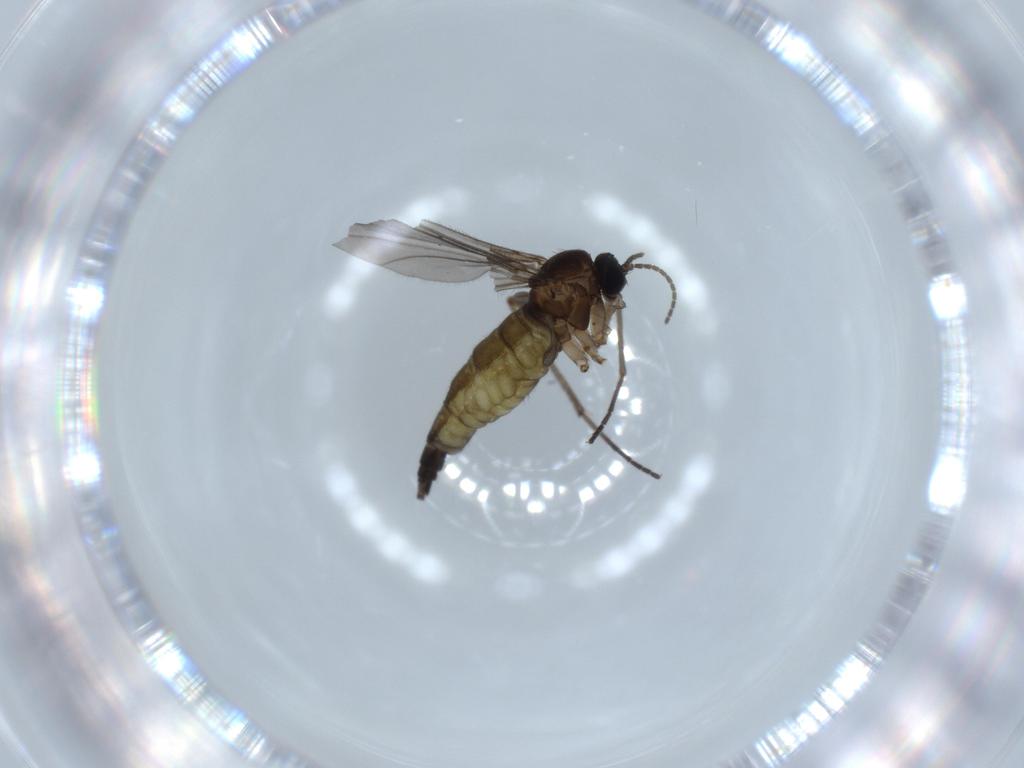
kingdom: Animalia
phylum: Arthropoda
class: Insecta
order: Diptera
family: Sciaridae
